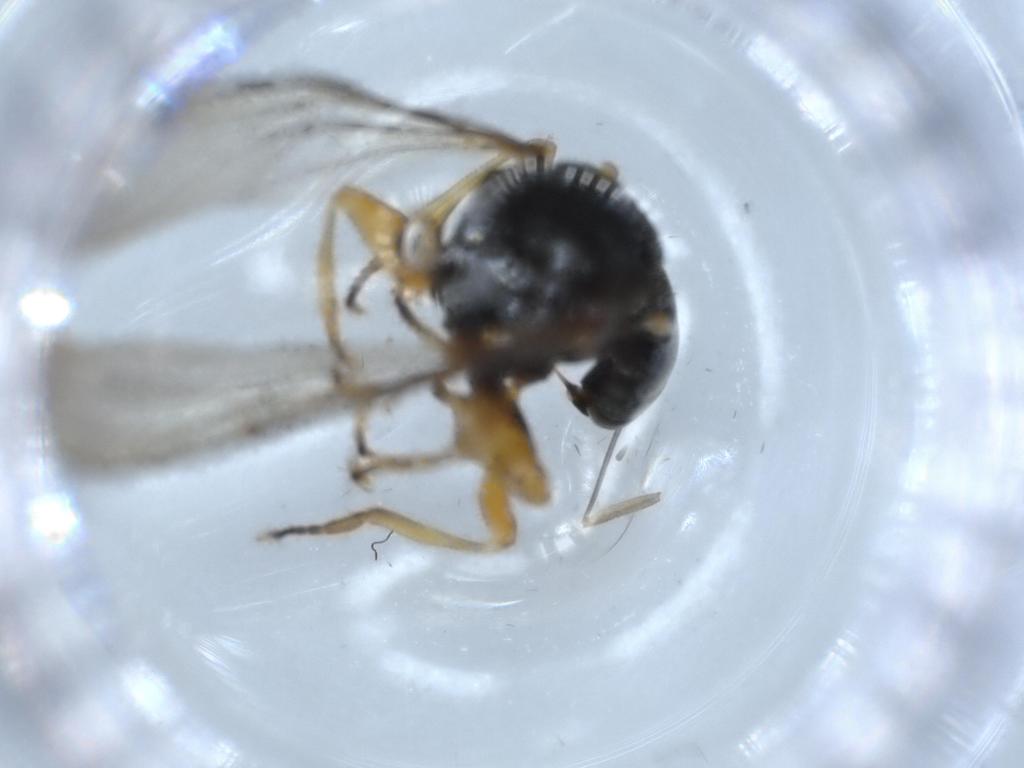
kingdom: Animalia
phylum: Arthropoda
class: Insecta
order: Diptera
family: Sciaridae
